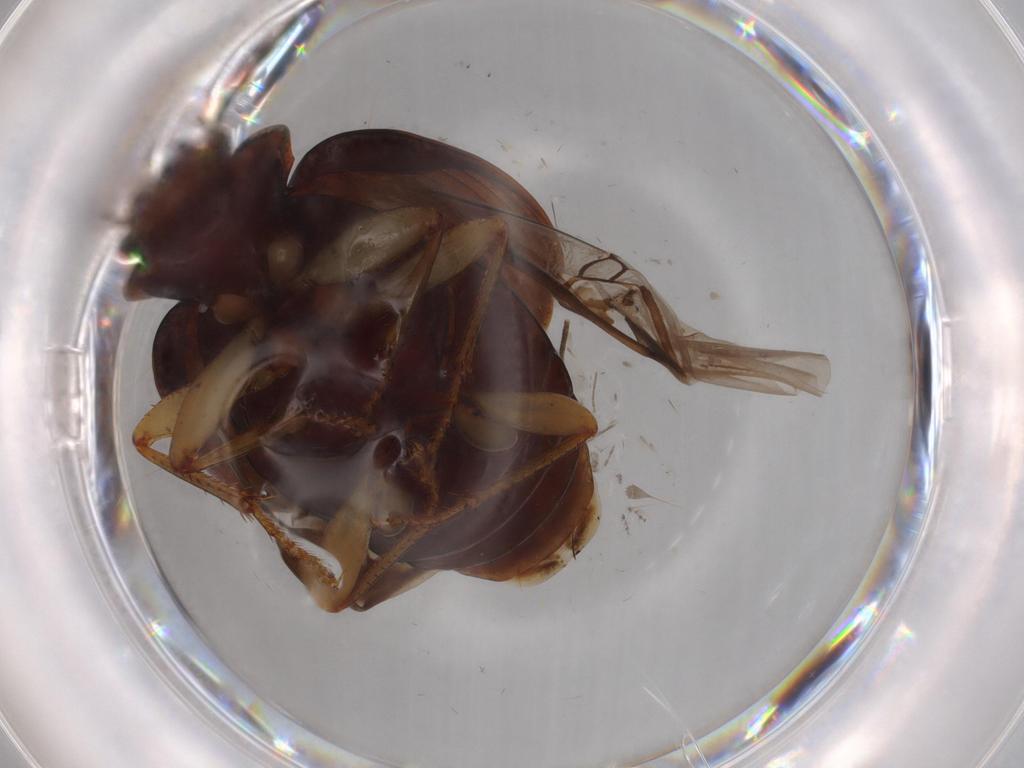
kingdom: Animalia
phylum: Arthropoda
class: Insecta
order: Coleoptera
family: Carabidae
